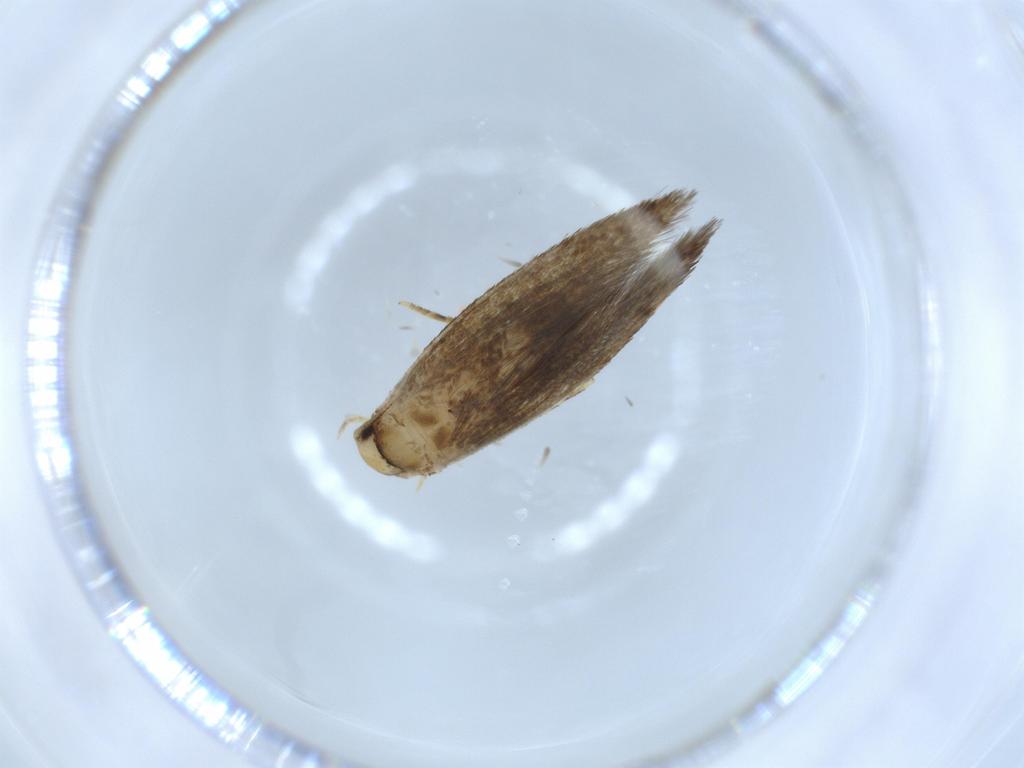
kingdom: Animalia
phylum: Arthropoda
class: Insecta
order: Lepidoptera
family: Tineidae
